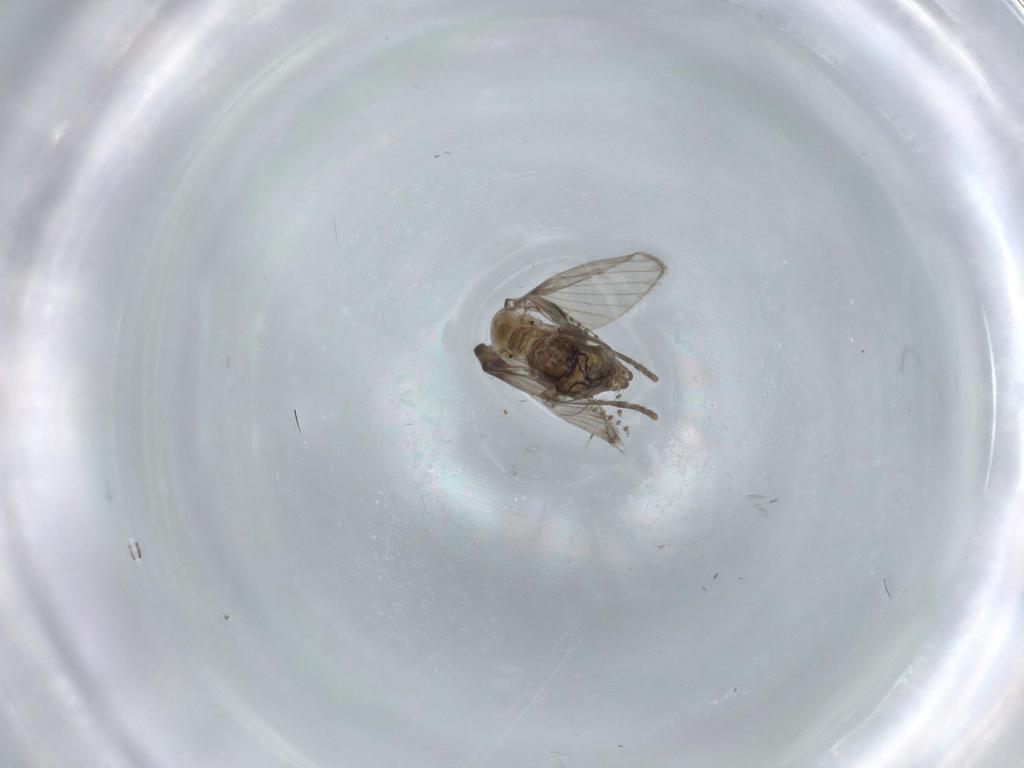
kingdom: Animalia
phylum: Arthropoda
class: Insecta
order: Diptera
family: Psychodidae
